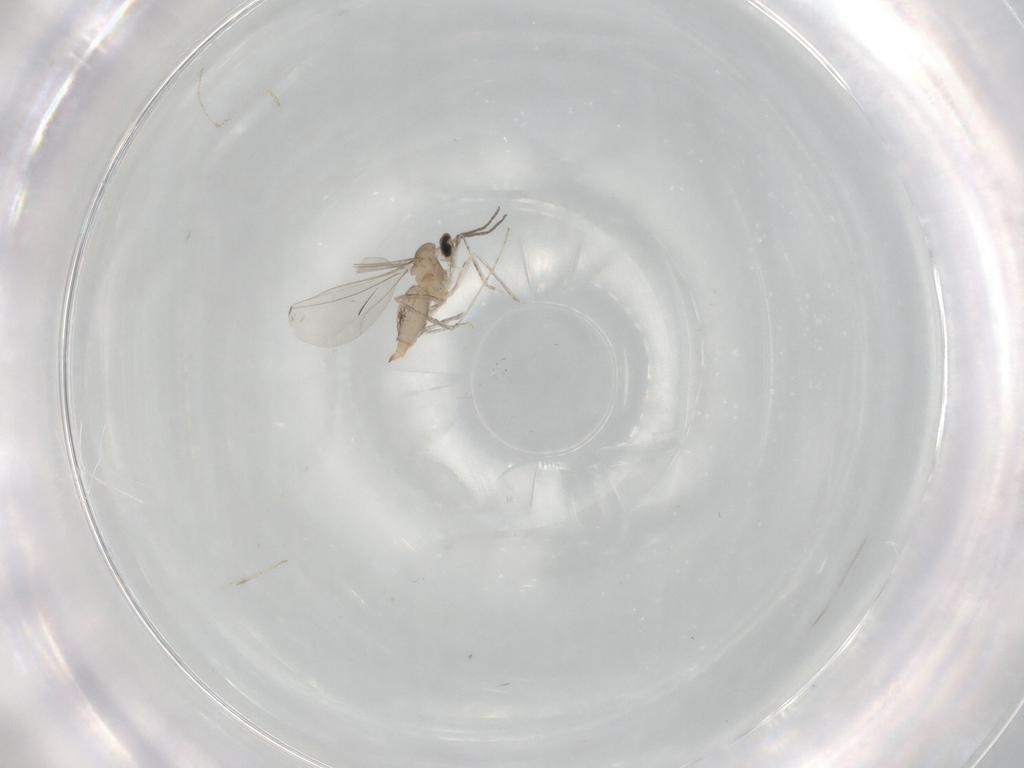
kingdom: Animalia
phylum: Arthropoda
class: Insecta
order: Diptera
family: Cecidomyiidae
